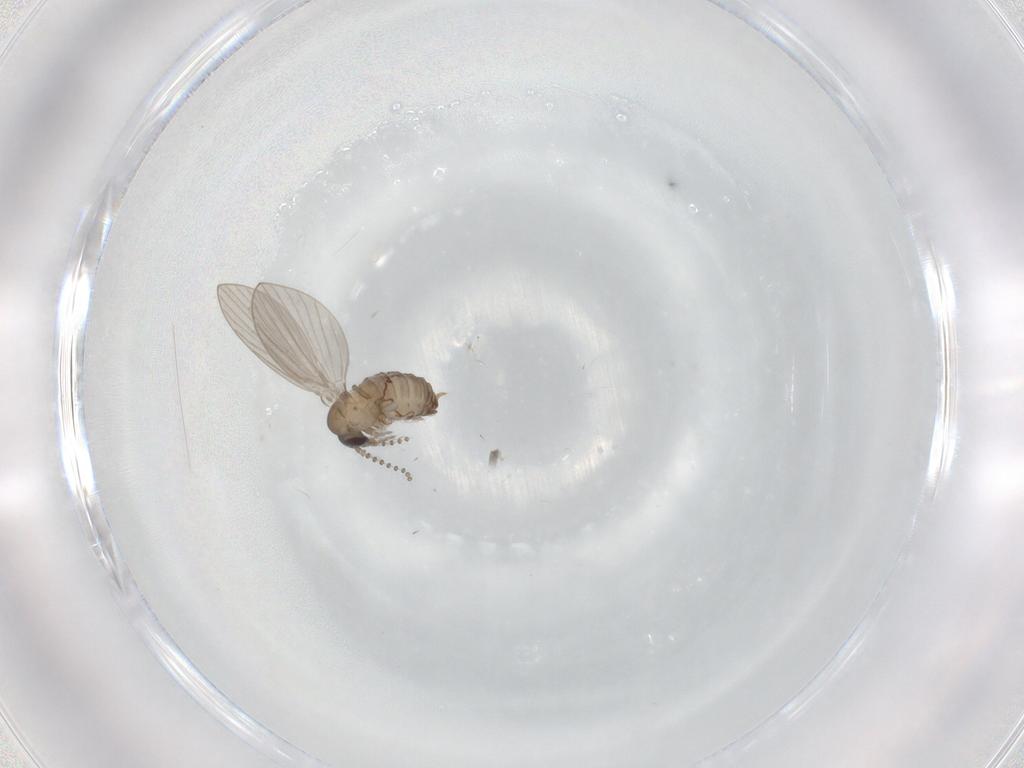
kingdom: Animalia
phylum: Arthropoda
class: Insecta
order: Diptera
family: Psychodidae
